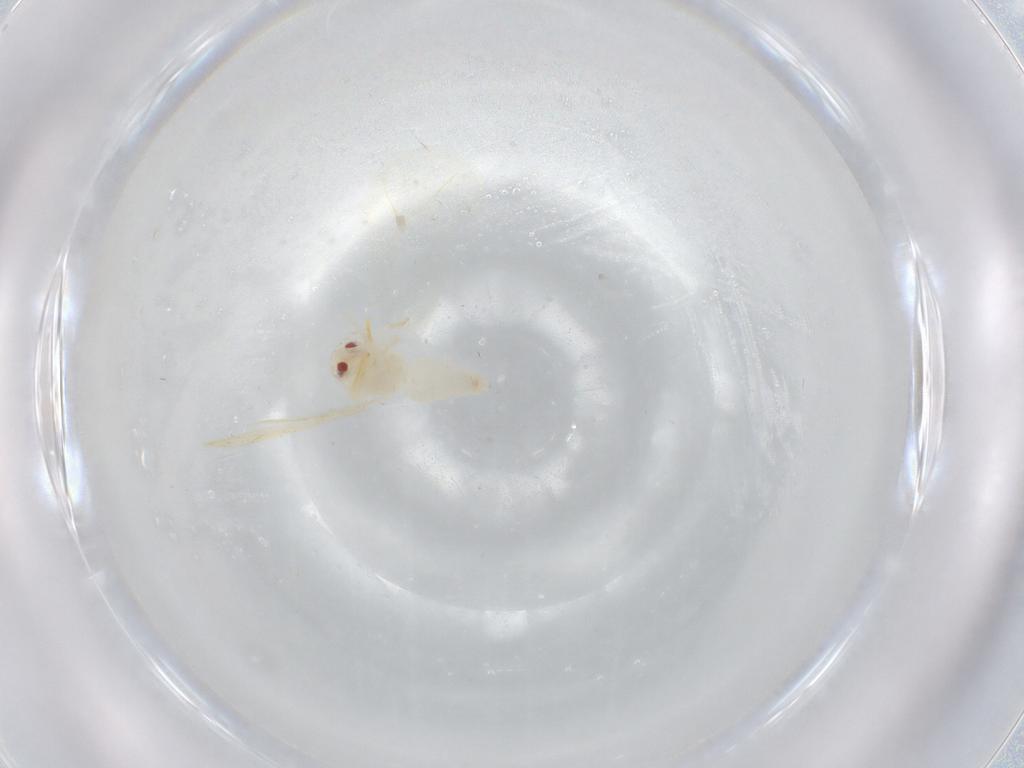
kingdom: Animalia
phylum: Arthropoda
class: Insecta
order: Hemiptera
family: Aleyrodidae
